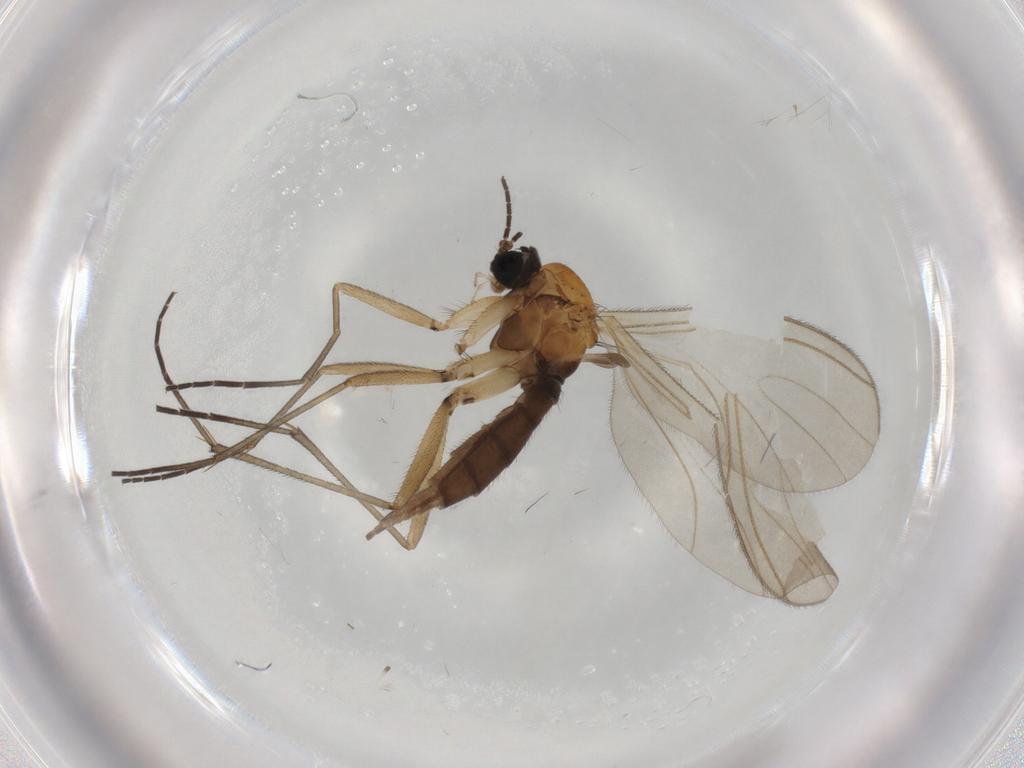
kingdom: Animalia
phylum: Arthropoda
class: Insecta
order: Diptera
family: Sciaridae
